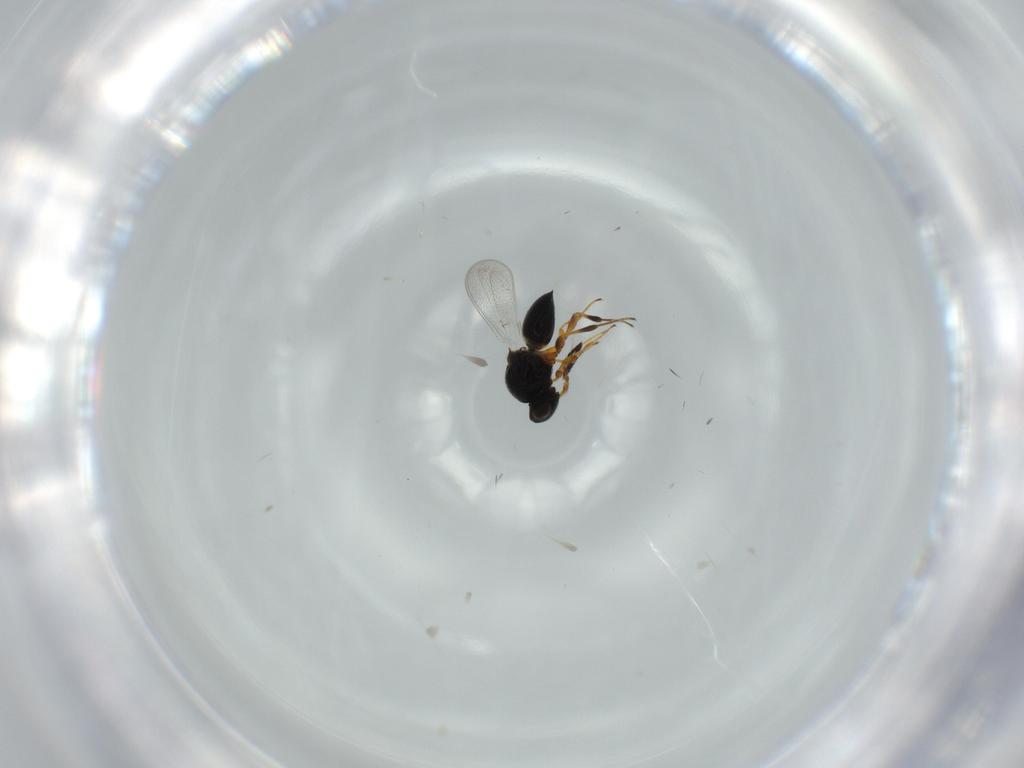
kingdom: Animalia
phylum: Arthropoda
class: Insecta
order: Hymenoptera
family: Platygastridae
